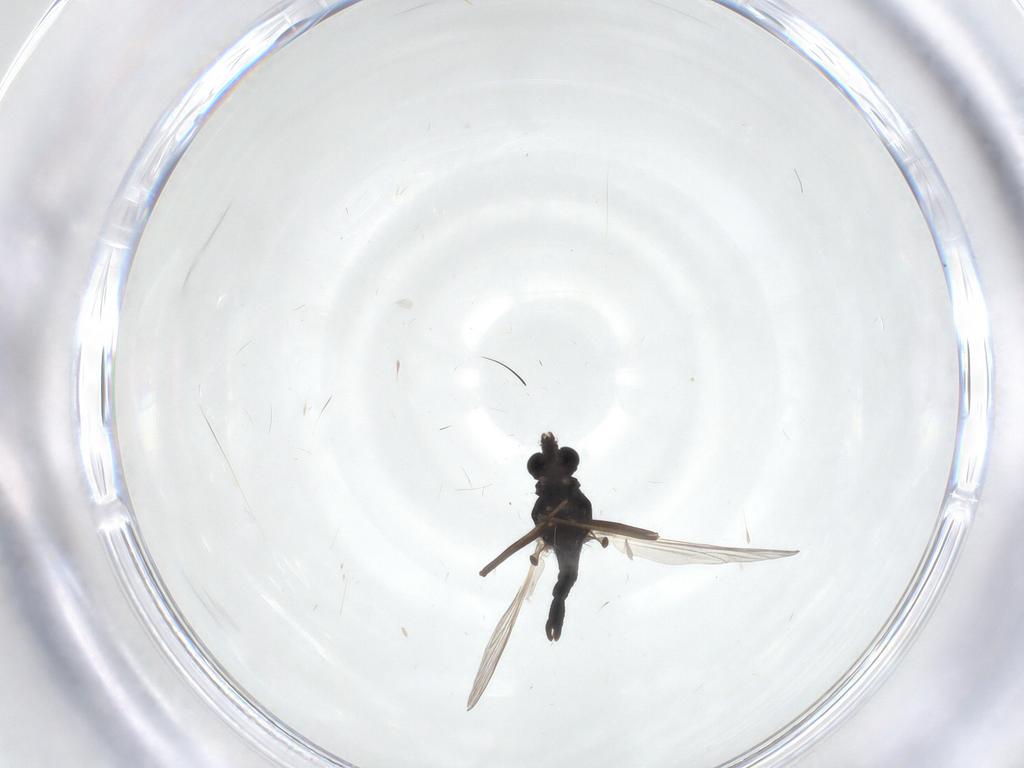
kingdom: Animalia
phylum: Arthropoda
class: Insecta
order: Diptera
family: Chironomidae
